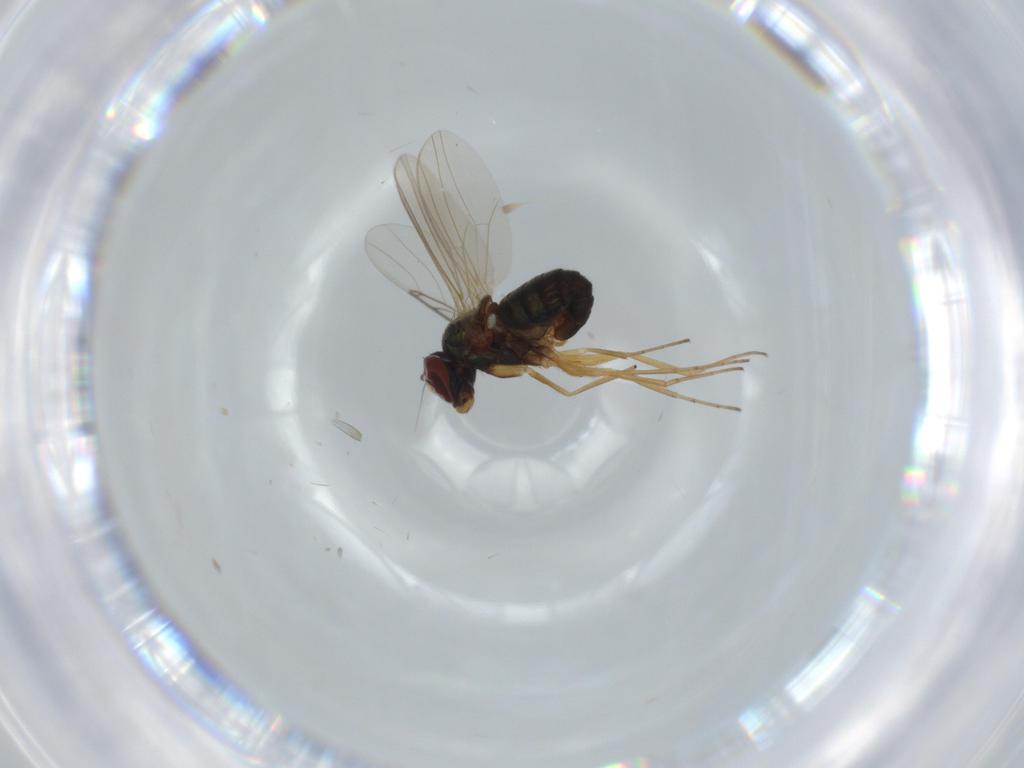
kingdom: Animalia
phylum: Arthropoda
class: Insecta
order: Diptera
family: Dolichopodidae
